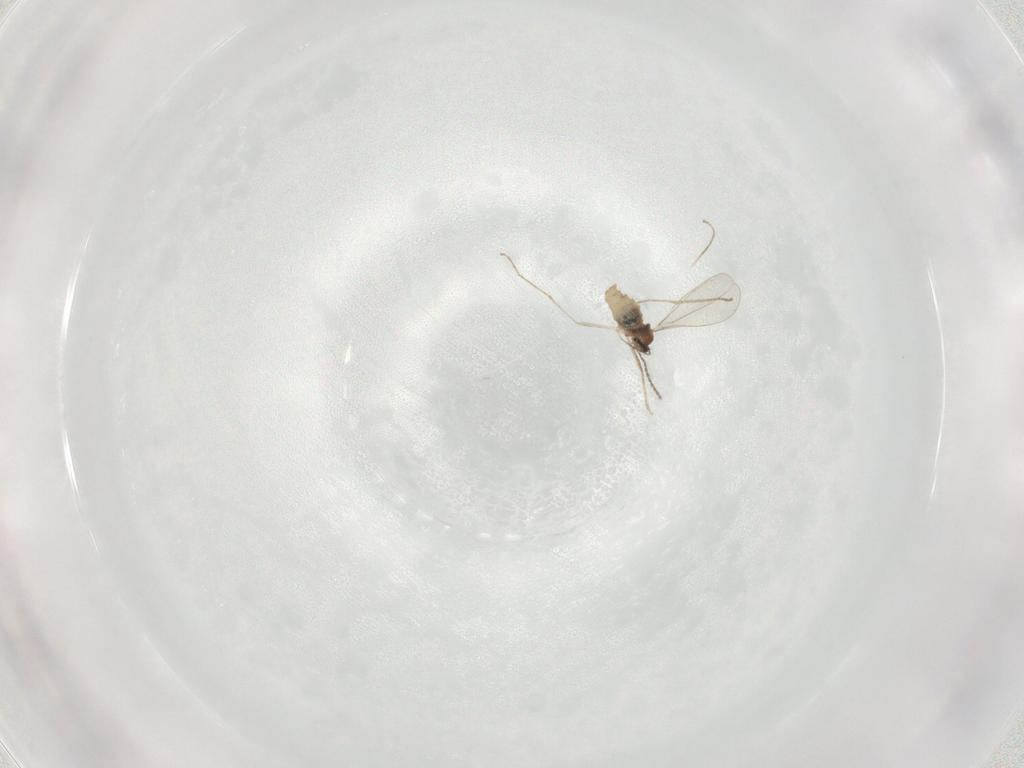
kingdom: Animalia
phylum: Arthropoda
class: Insecta
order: Diptera
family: Cecidomyiidae
